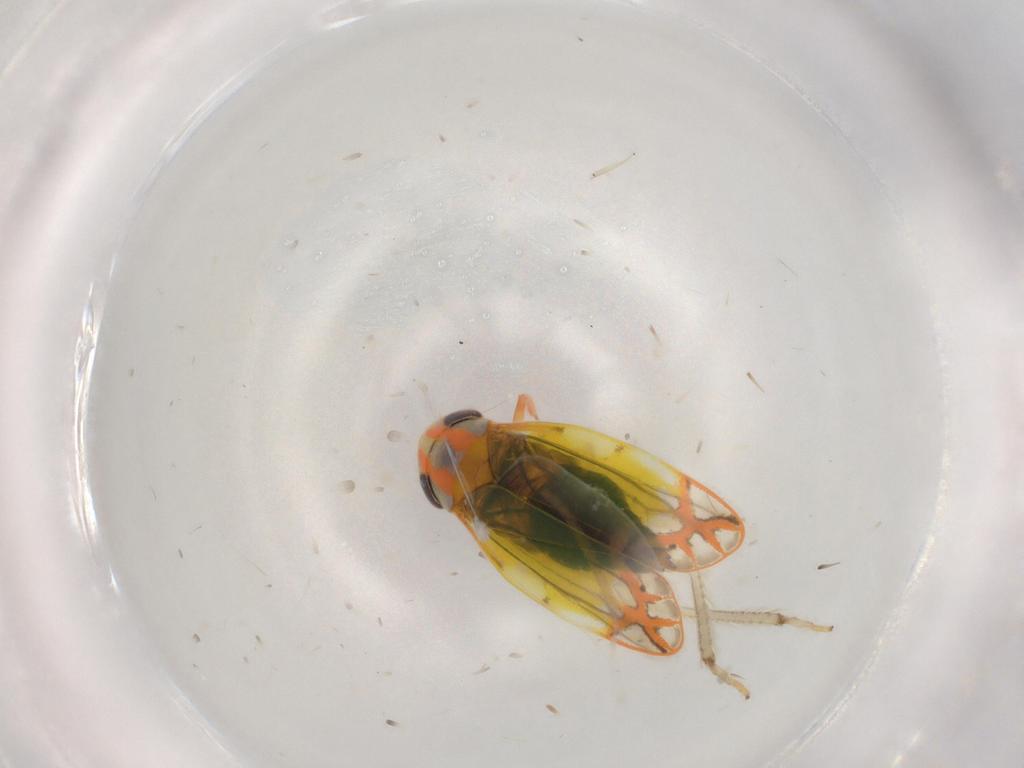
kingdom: Animalia
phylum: Arthropoda
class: Insecta
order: Hemiptera
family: Cicadellidae
